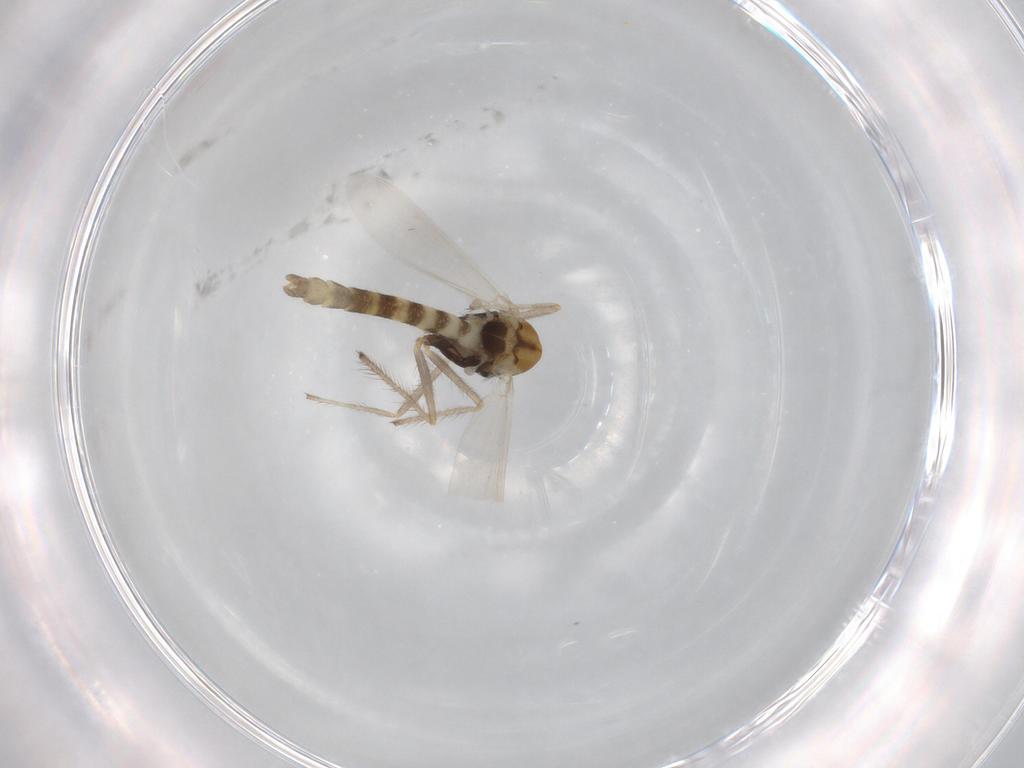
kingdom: Animalia
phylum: Arthropoda
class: Insecta
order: Diptera
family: Chironomidae
